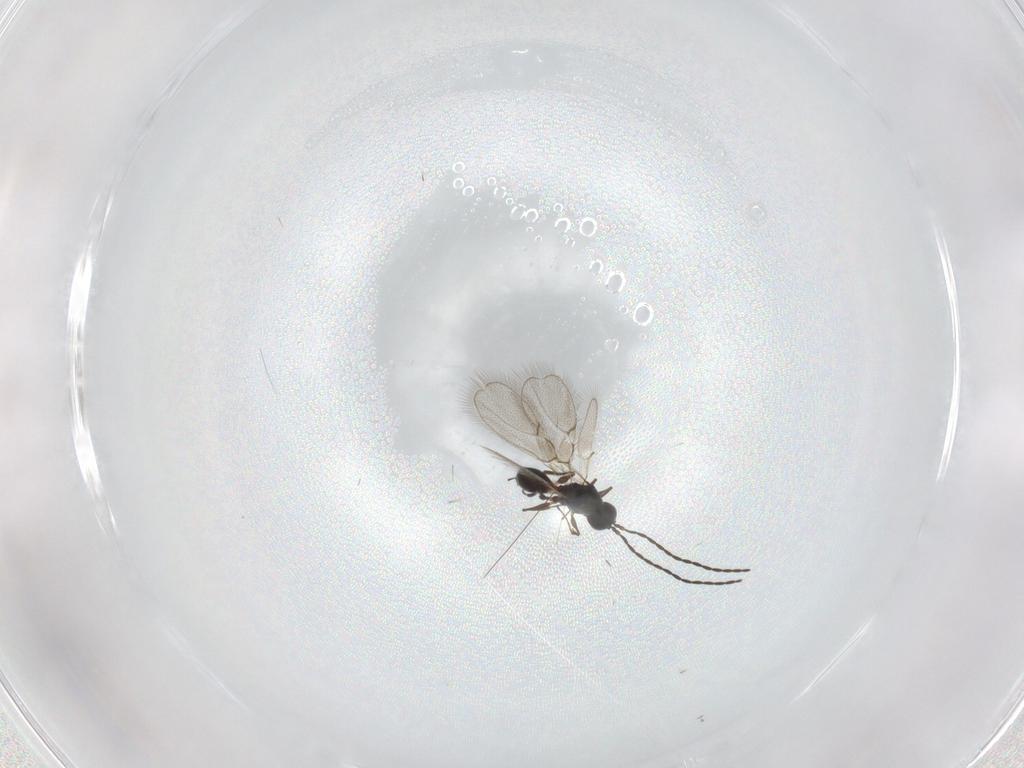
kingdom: Animalia
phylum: Arthropoda
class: Insecta
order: Hymenoptera
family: Figitidae
